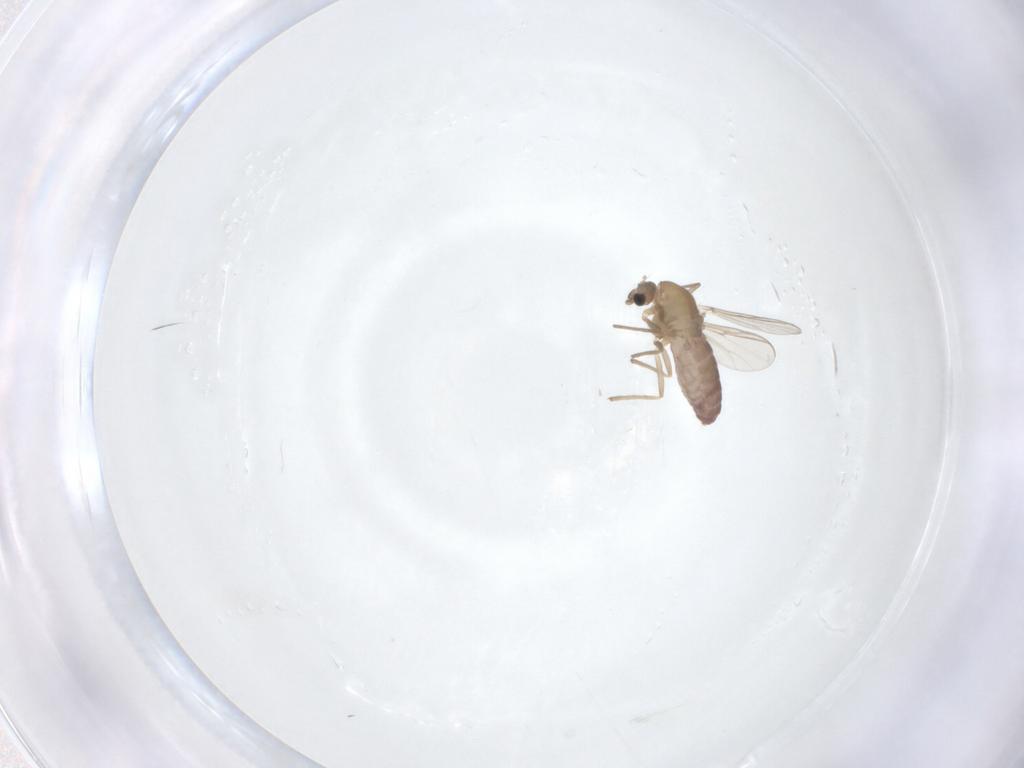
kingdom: Animalia
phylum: Arthropoda
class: Insecta
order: Diptera
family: Chironomidae
